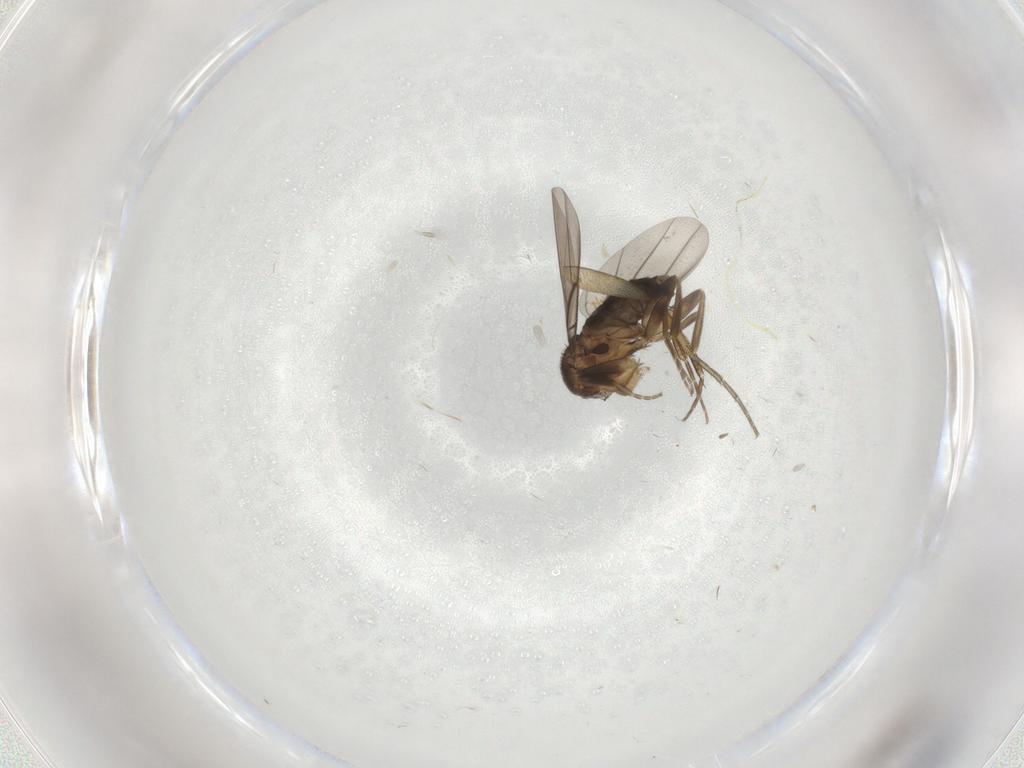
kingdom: Animalia
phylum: Arthropoda
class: Insecta
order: Diptera
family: Phoridae
